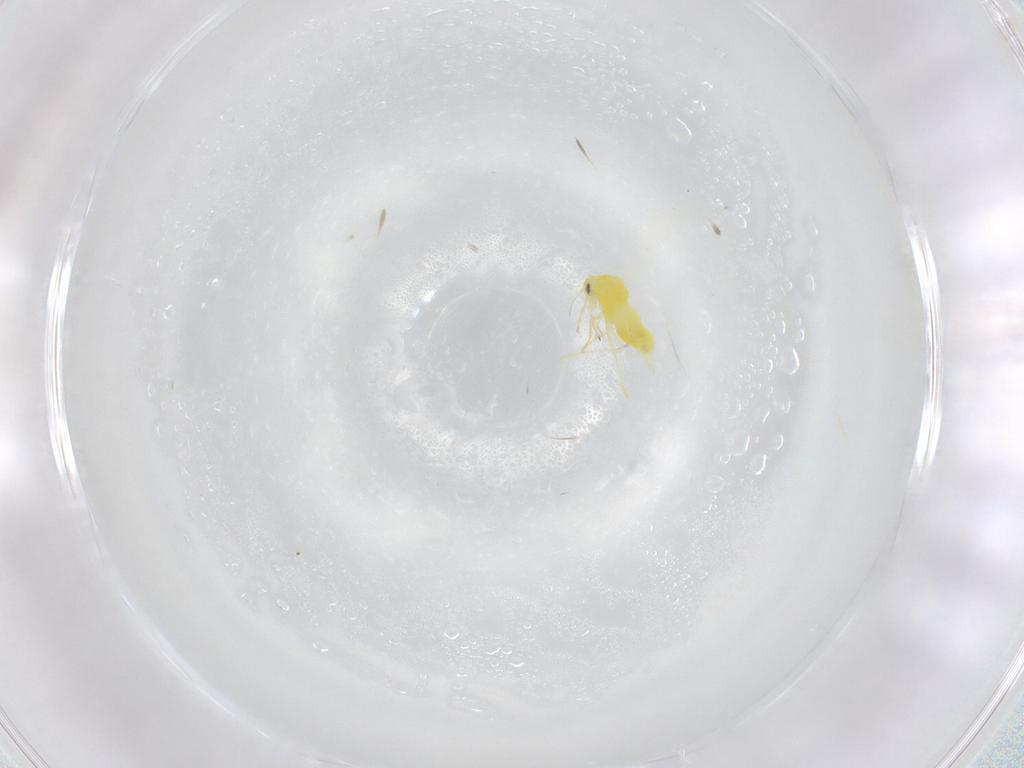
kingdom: Animalia
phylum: Arthropoda
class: Insecta
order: Hemiptera
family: Aleyrodidae
